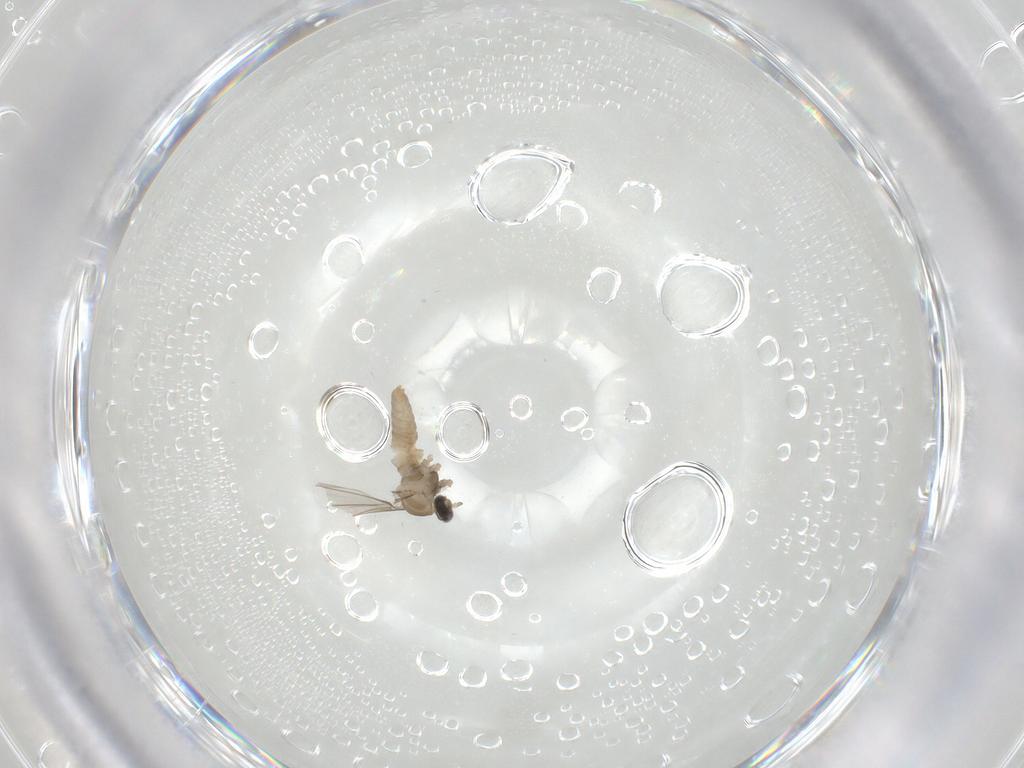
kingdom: Animalia
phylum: Arthropoda
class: Insecta
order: Diptera
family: Cecidomyiidae
